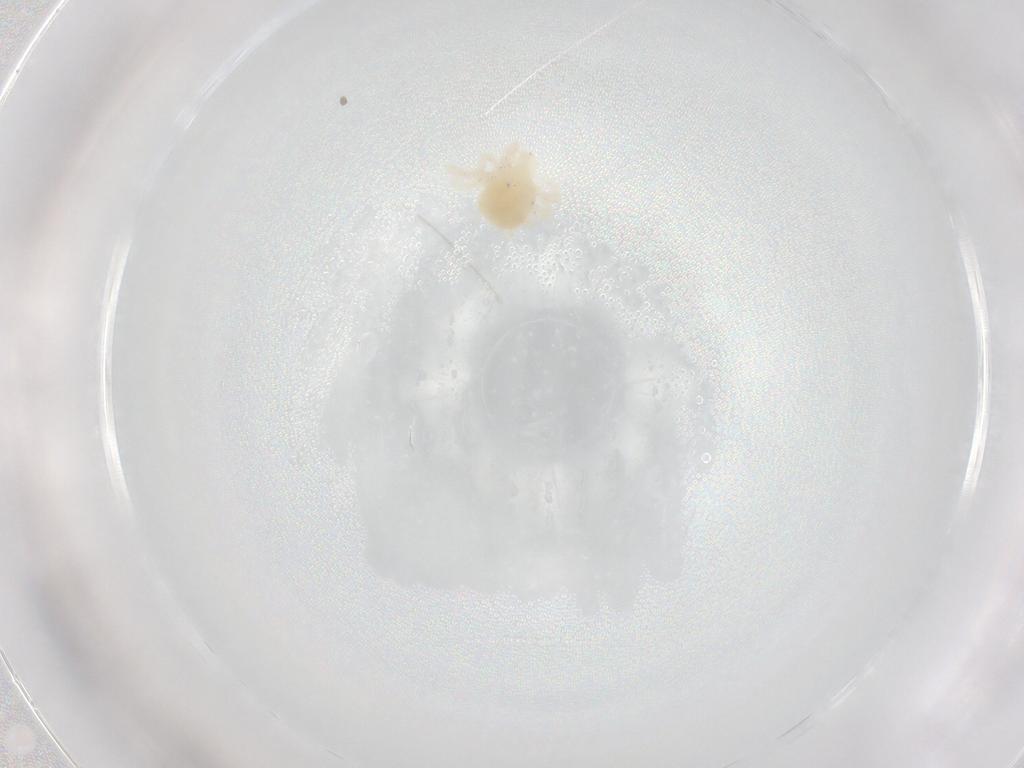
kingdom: Animalia
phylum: Arthropoda
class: Arachnida
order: Trombidiformes
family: Anystidae
